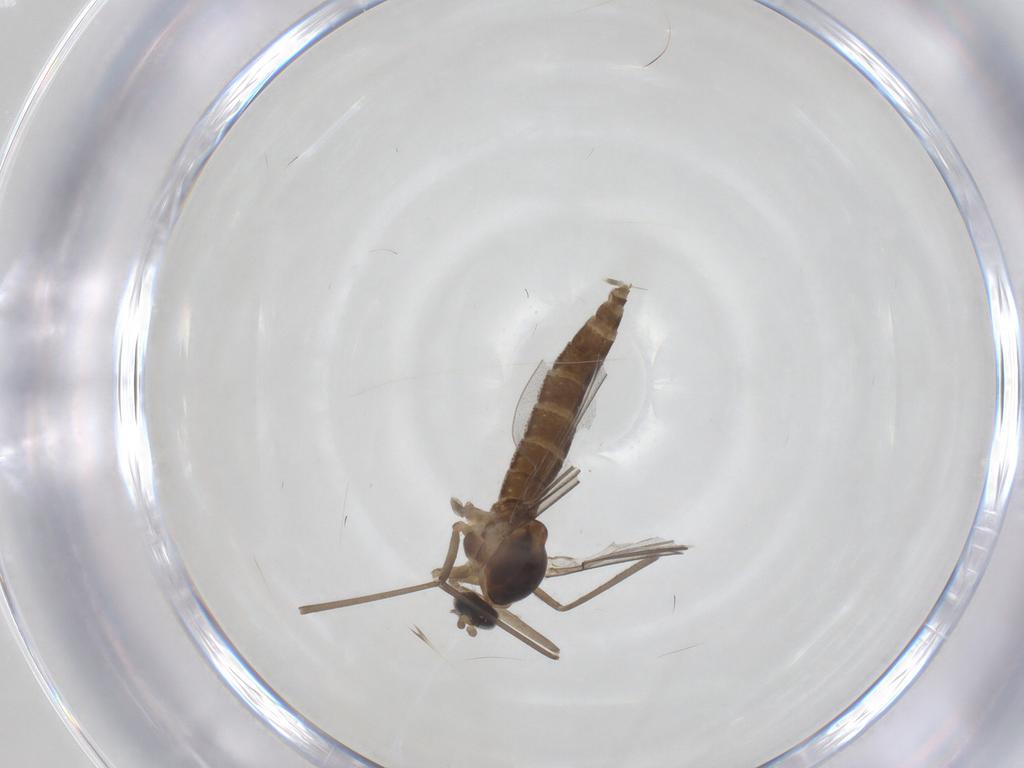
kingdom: Animalia
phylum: Arthropoda
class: Insecta
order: Diptera
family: Cecidomyiidae
